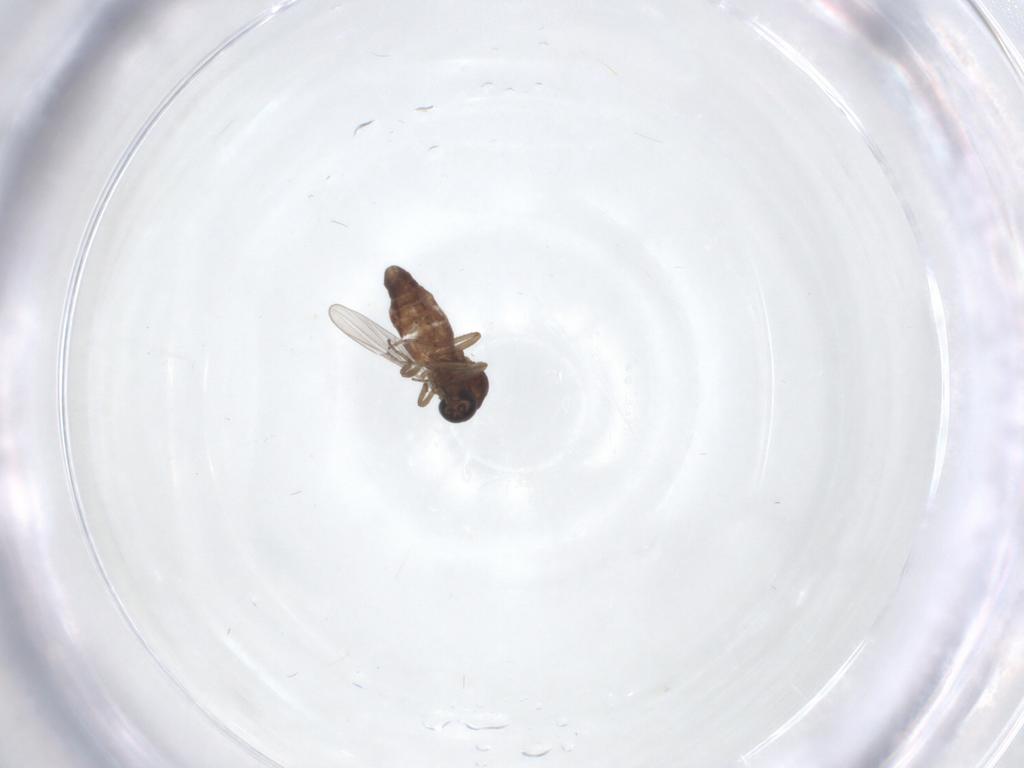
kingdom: Animalia
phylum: Arthropoda
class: Insecta
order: Diptera
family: Ceratopogonidae
